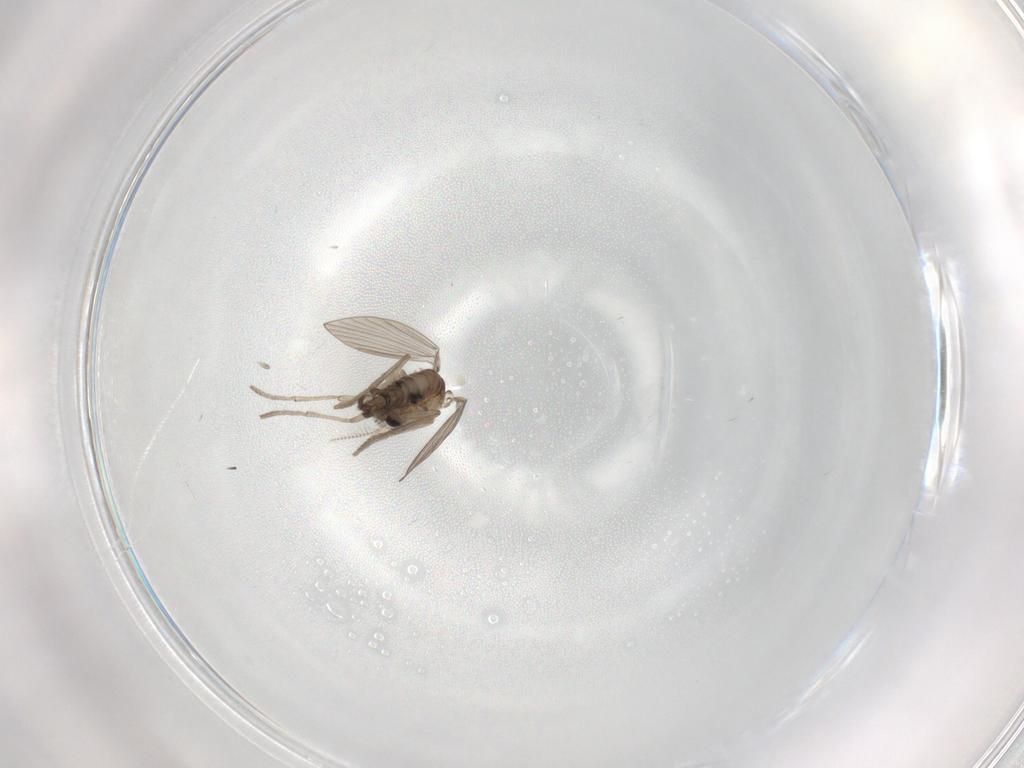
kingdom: Animalia
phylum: Arthropoda
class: Insecta
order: Diptera
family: Psychodidae
